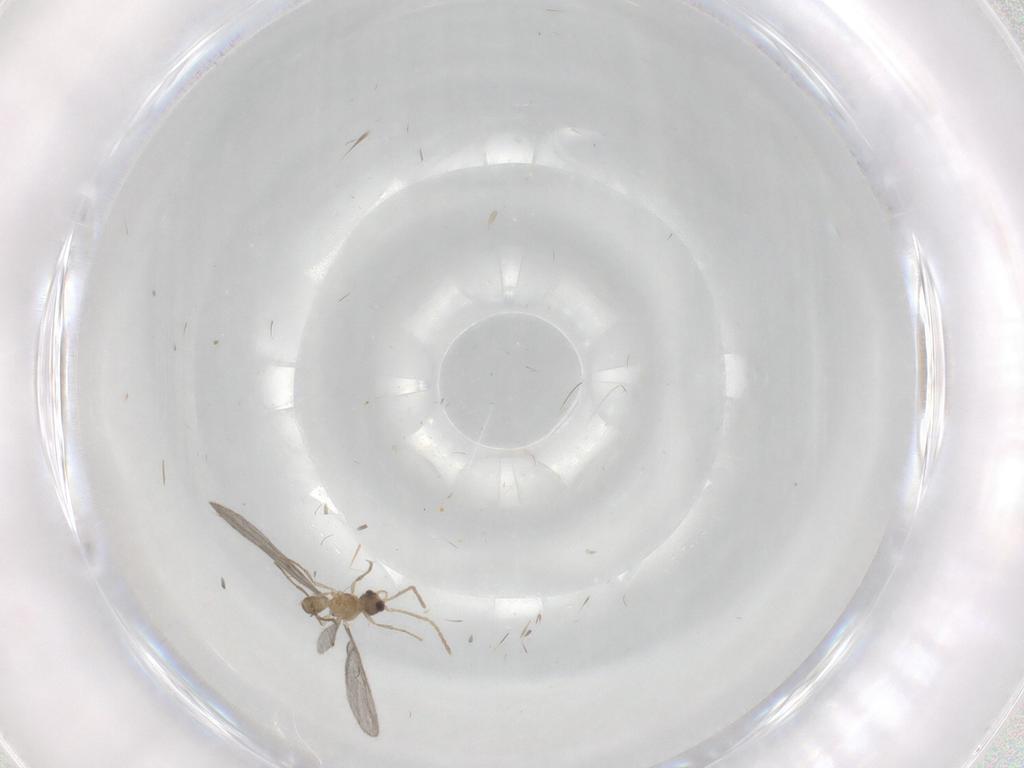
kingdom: Animalia
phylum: Arthropoda
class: Insecta
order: Hymenoptera
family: Formicidae
